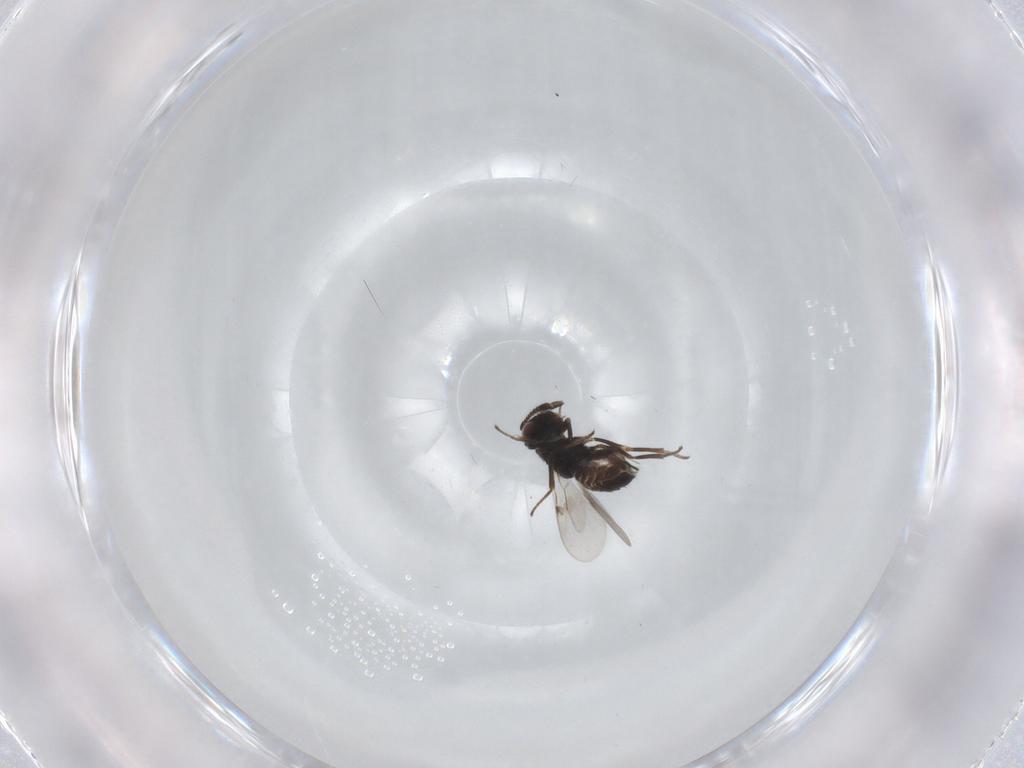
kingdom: Animalia
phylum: Arthropoda
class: Insecta
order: Hymenoptera
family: Encyrtidae
